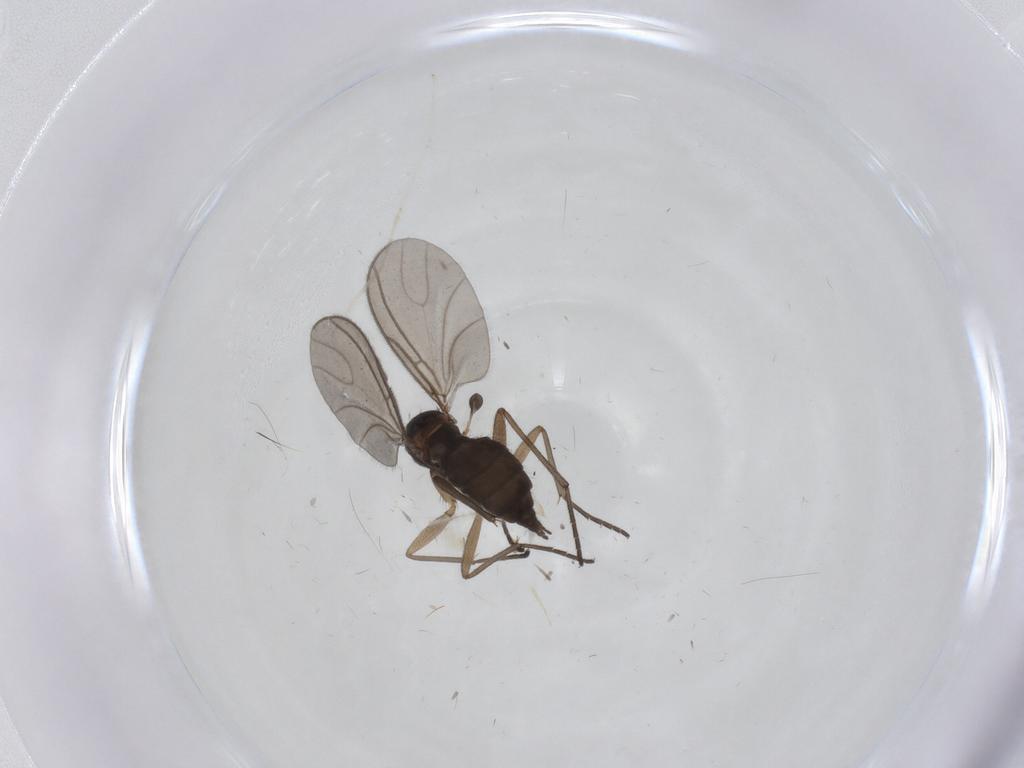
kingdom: Animalia
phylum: Arthropoda
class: Insecta
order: Diptera
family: Sciaridae
